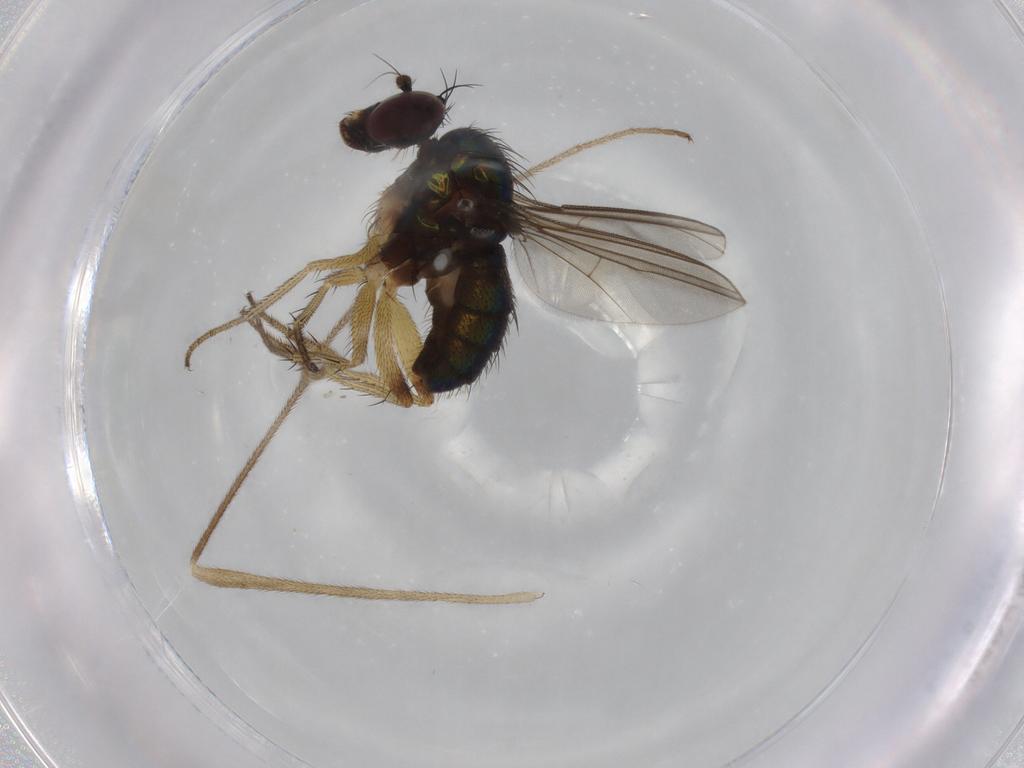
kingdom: Animalia
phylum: Arthropoda
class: Insecta
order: Diptera
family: Dolichopodidae
